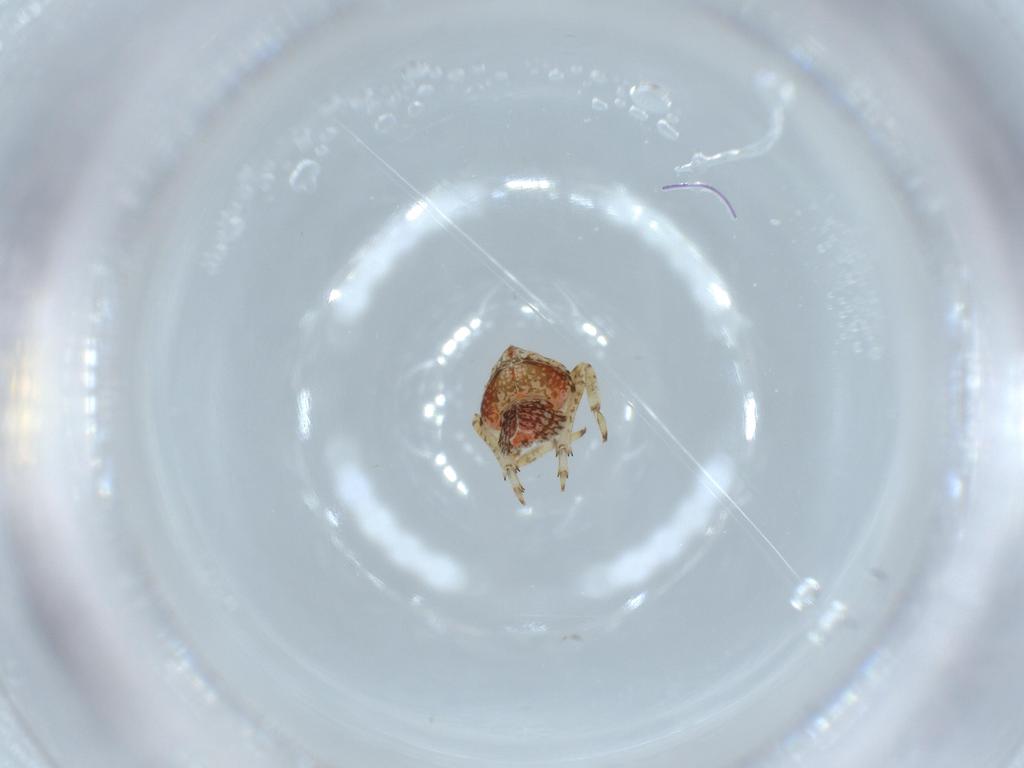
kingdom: Animalia
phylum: Arthropoda
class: Insecta
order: Hemiptera
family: Issidae
